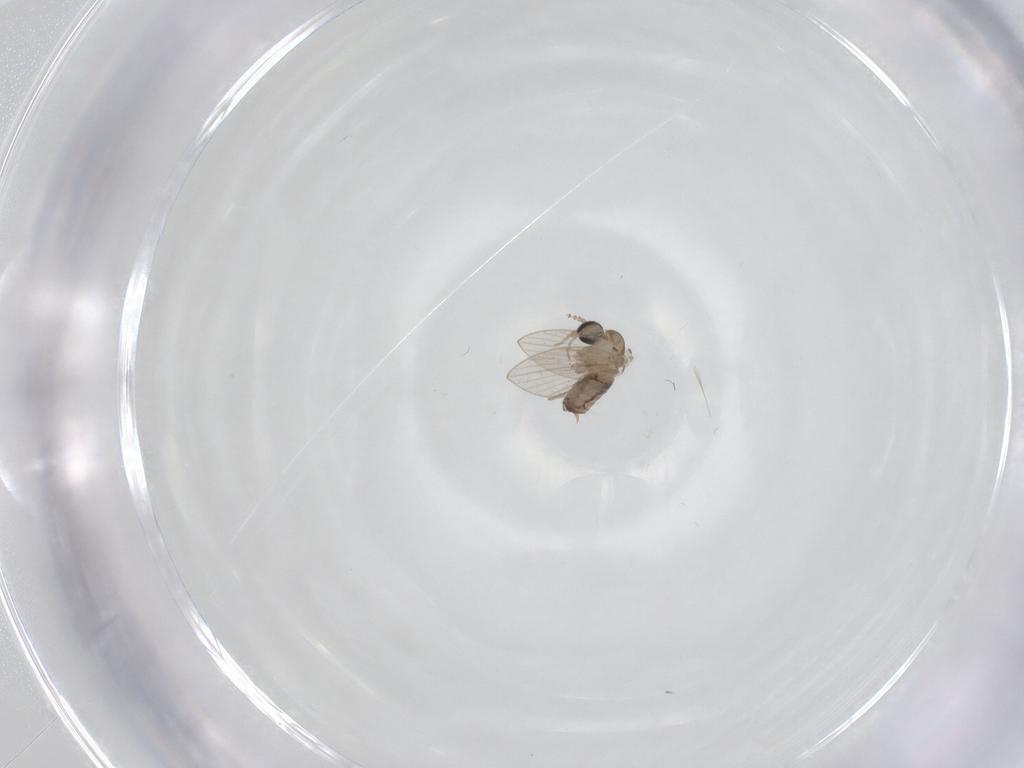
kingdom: Animalia
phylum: Arthropoda
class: Insecta
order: Diptera
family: Psychodidae
